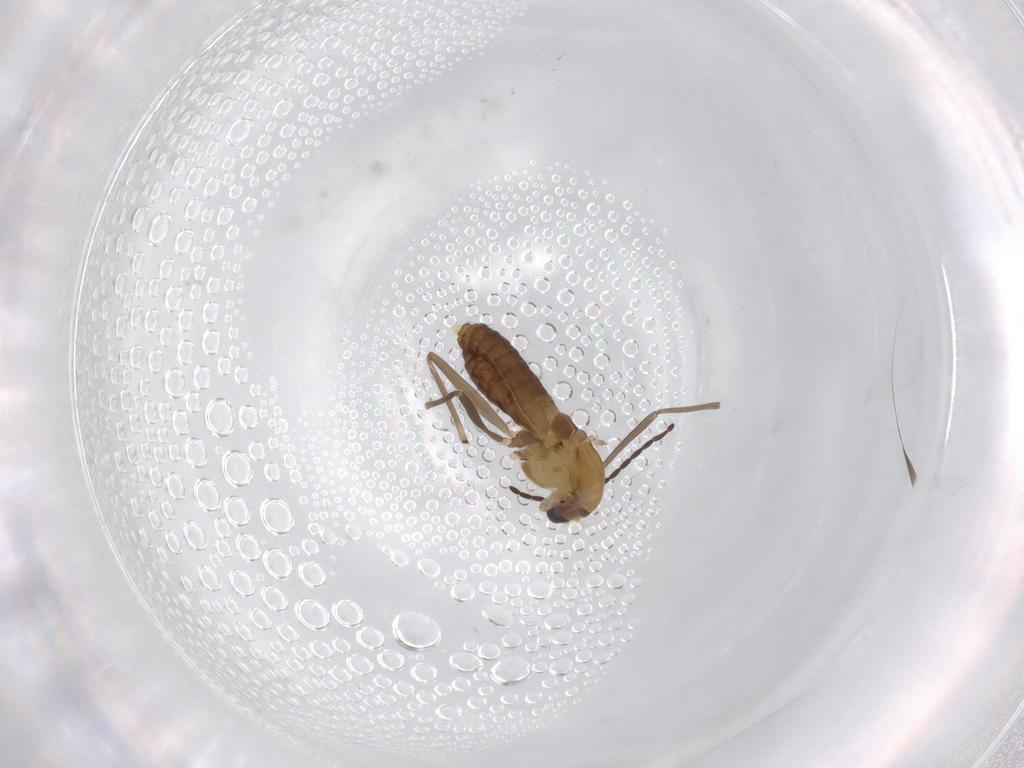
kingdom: Animalia
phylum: Arthropoda
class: Insecta
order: Diptera
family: Chironomidae
